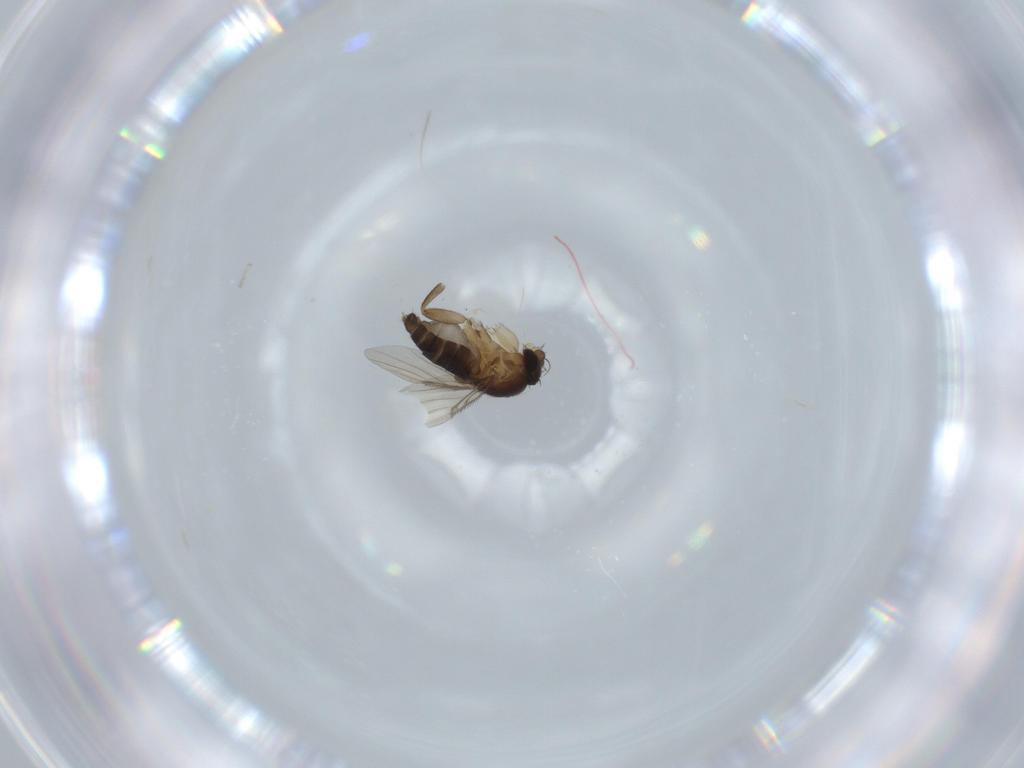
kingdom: Animalia
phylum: Arthropoda
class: Insecta
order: Diptera
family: Phoridae
